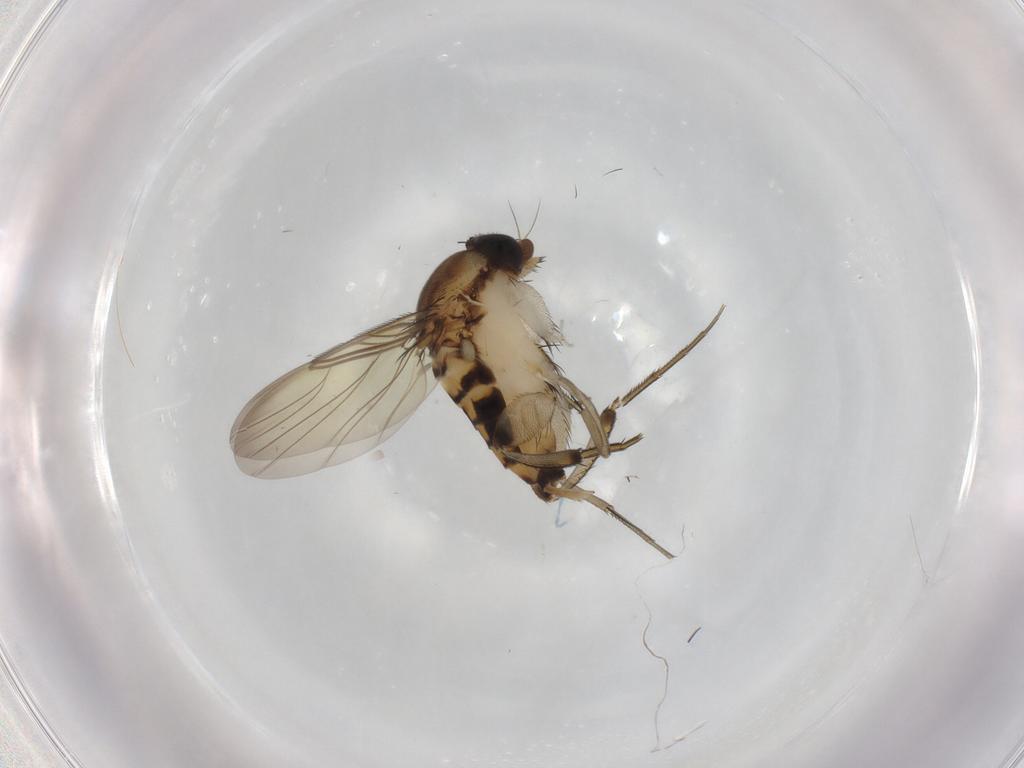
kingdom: Animalia
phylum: Arthropoda
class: Insecta
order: Diptera
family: Phoridae
